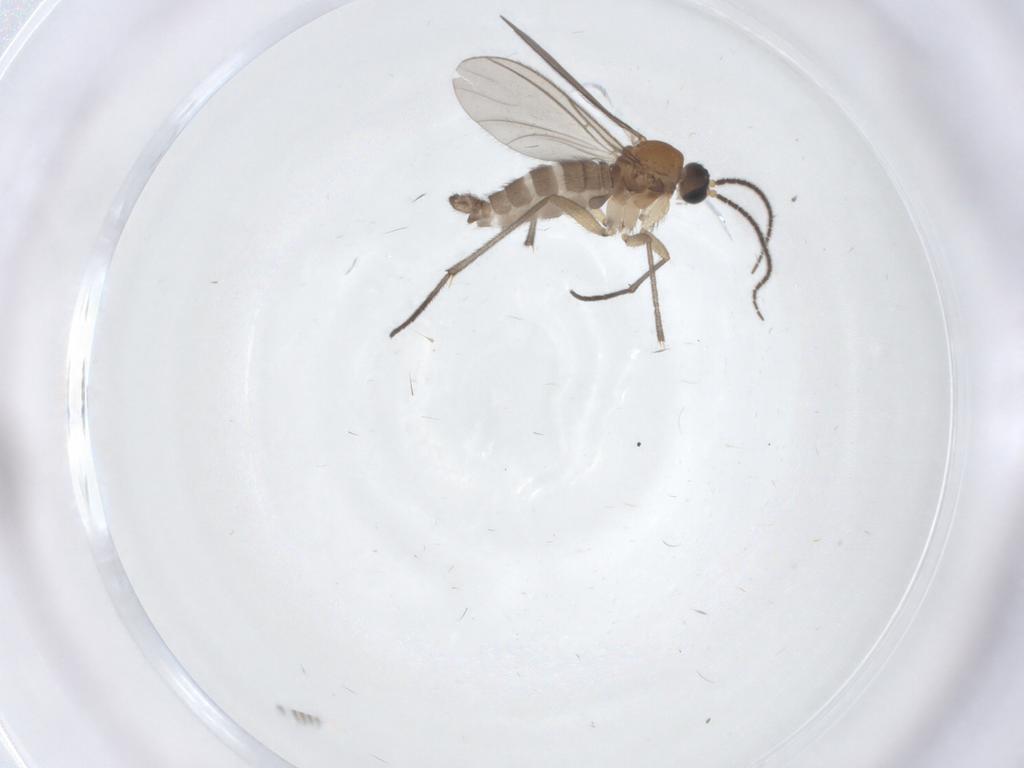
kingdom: Animalia
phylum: Arthropoda
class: Insecta
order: Diptera
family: Sciaridae
